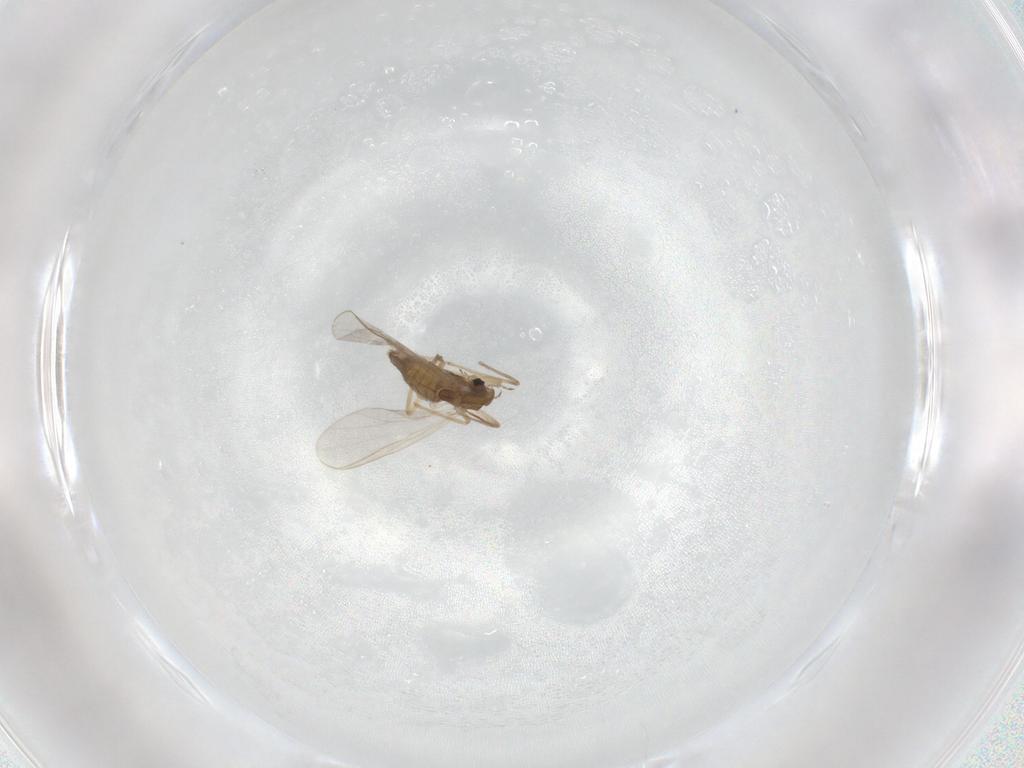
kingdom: Animalia
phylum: Arthropoda
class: Insecta
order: Diptera
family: Chironomidae
